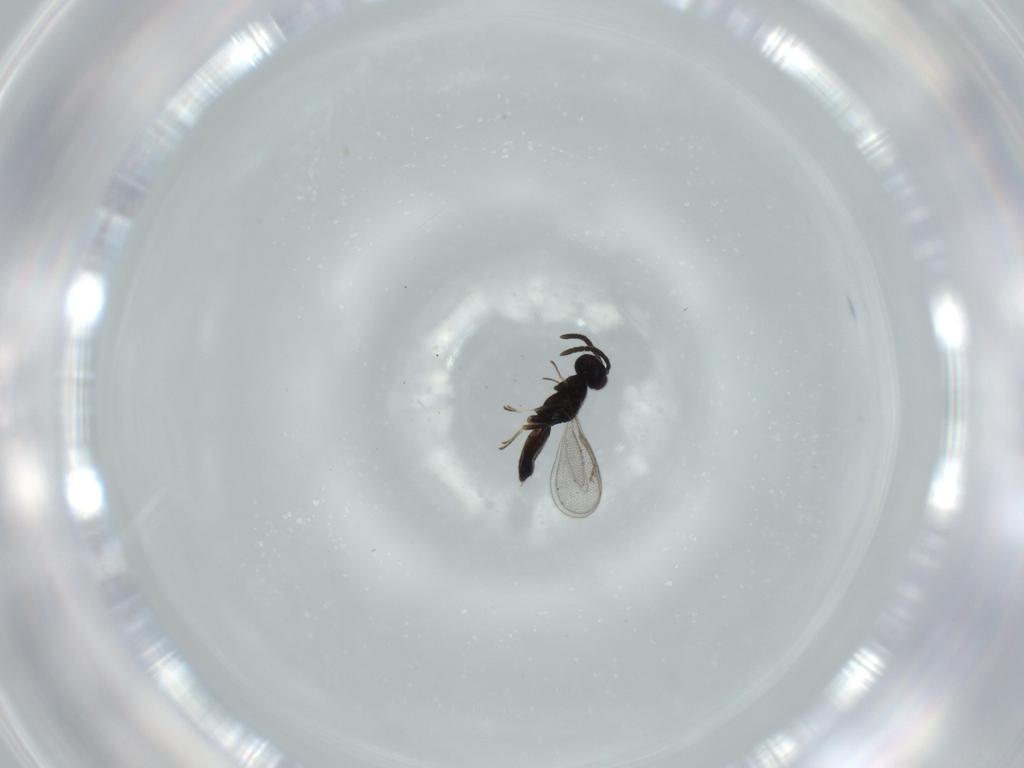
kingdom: Animalia
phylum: Arthropoda
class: Insecta
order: Hymenoptera
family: Eupelmidae
